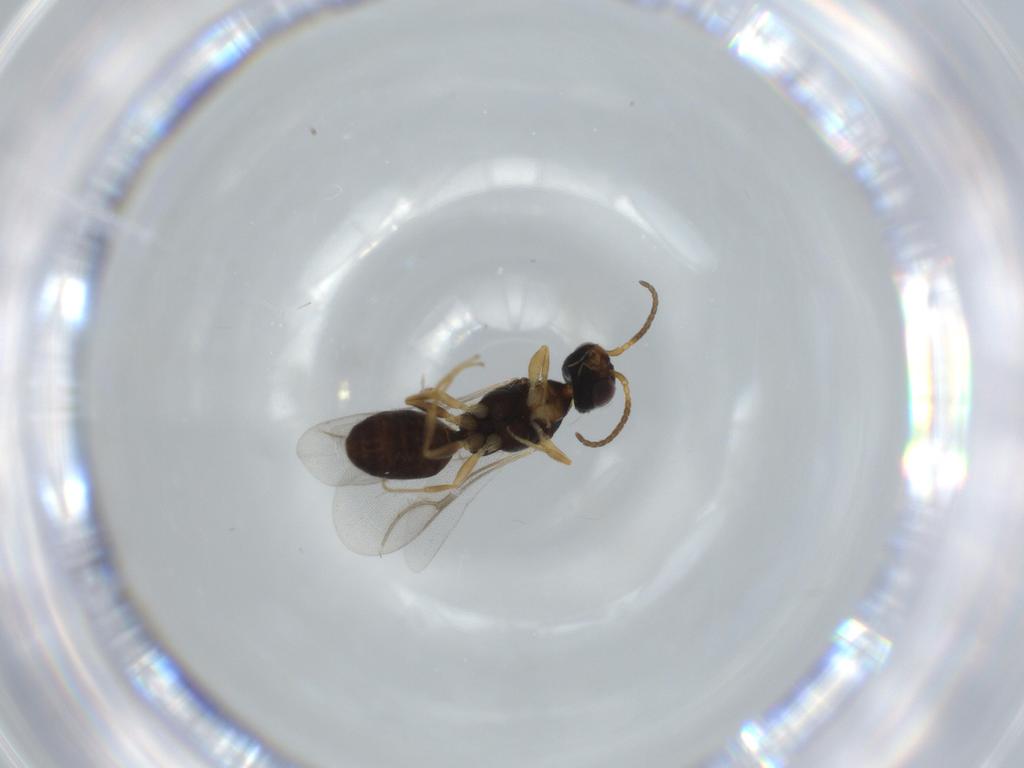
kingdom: Animalia
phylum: Arthropoda
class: Insecta
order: Hymenoptera
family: Bethylidae
